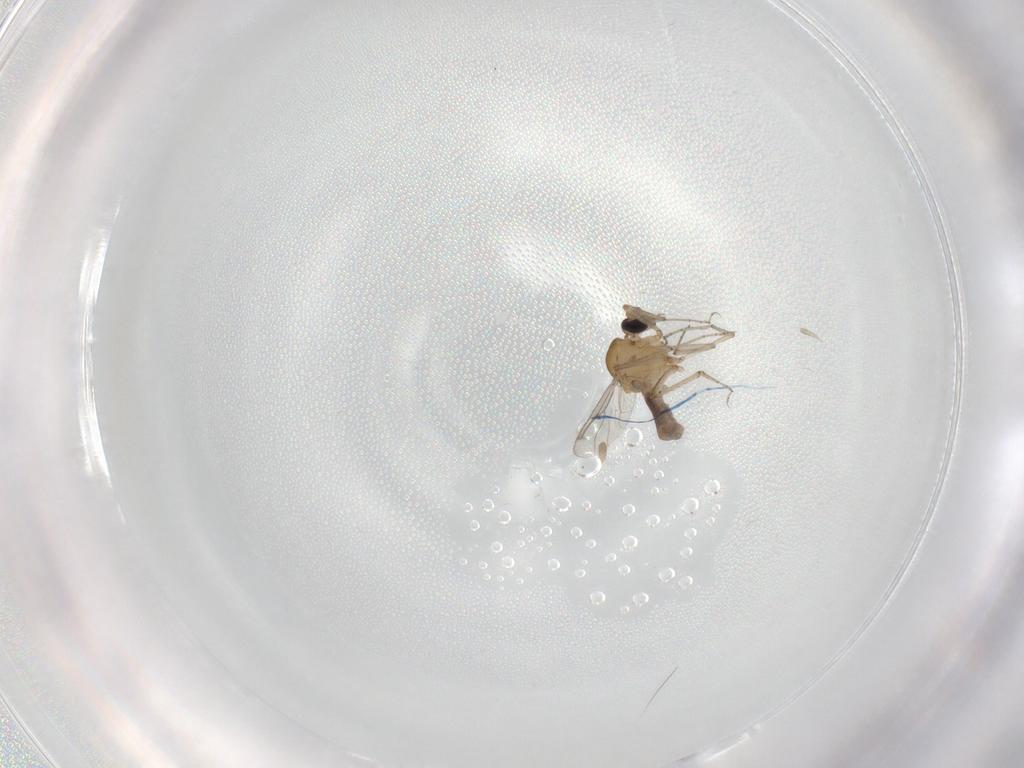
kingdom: Animalia
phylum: Arthropoda
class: Insecta
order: Diptera
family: Ceratopogonidae
